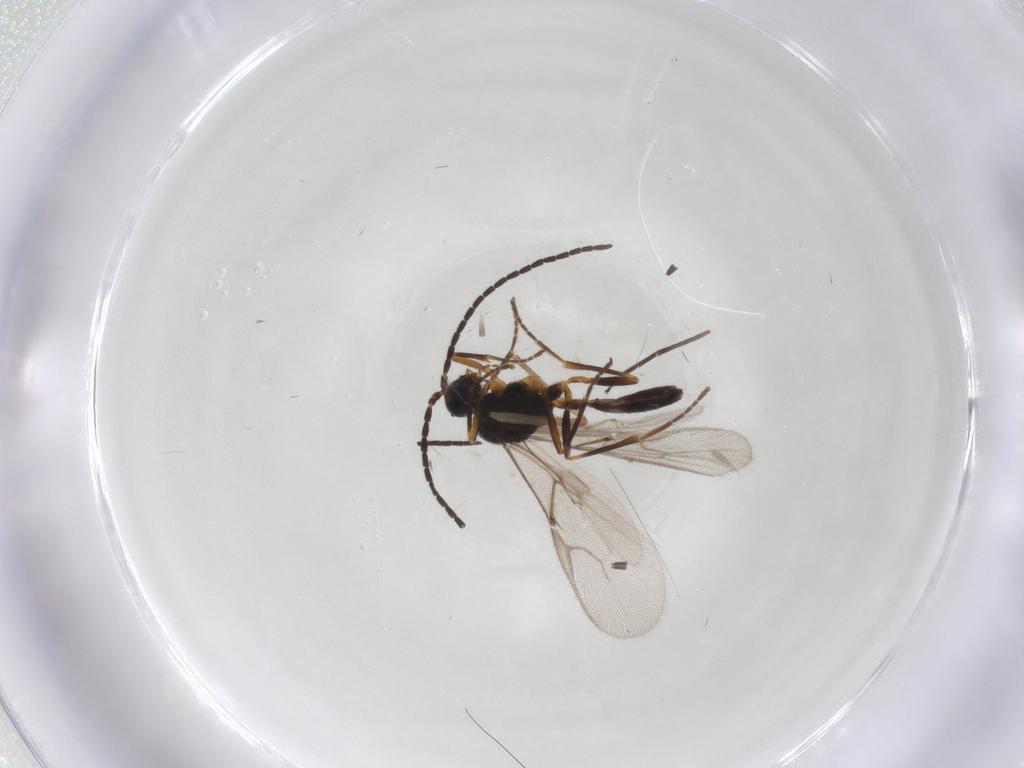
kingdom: Animalia
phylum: Arthropoda
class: Insecta
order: Hymenoptera
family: Braconidae
